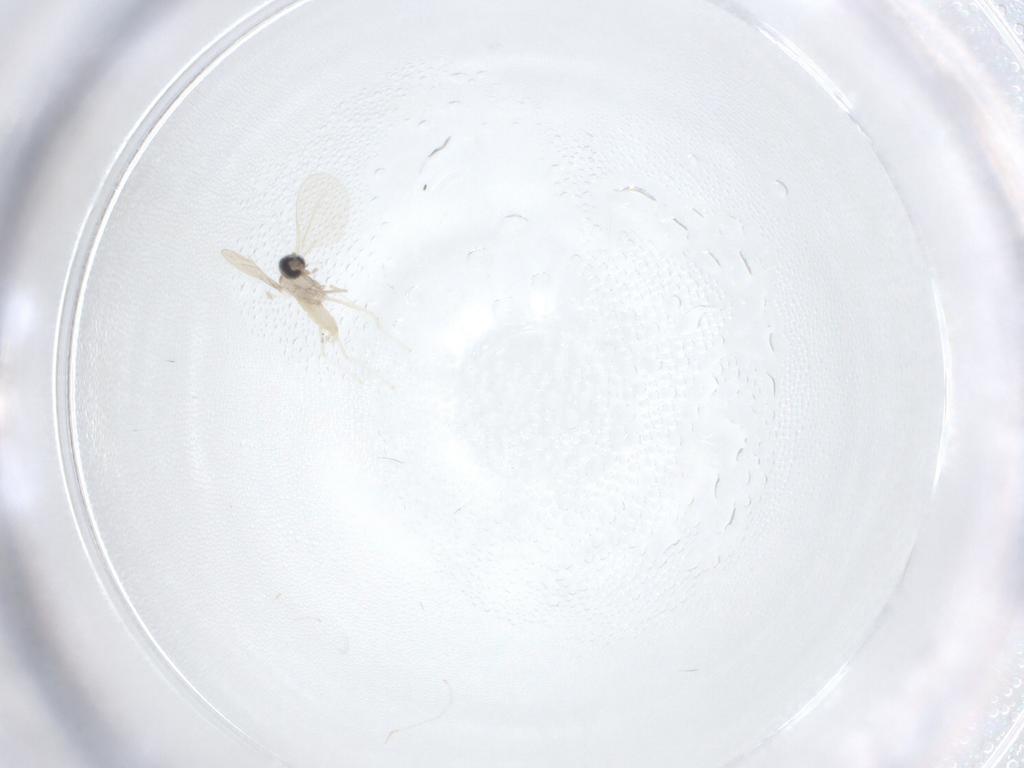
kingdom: Animalia
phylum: Arthropoda
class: Insecta
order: Diptera
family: Cecidomyiidae
